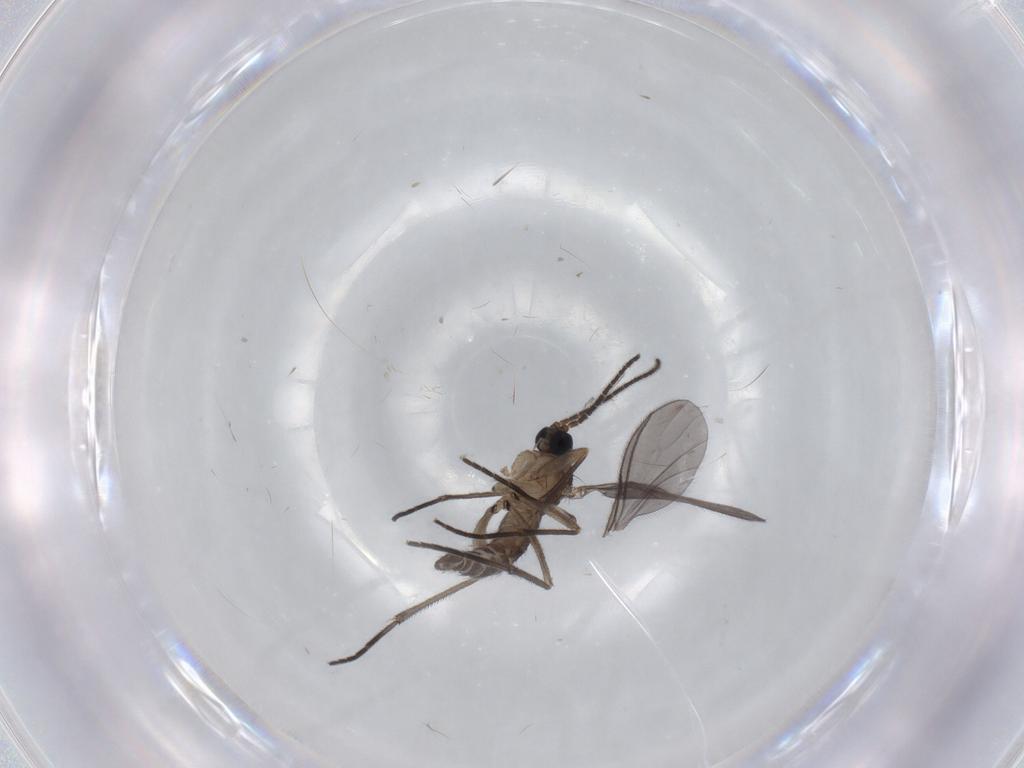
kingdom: Animalia
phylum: Arthropoda
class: Insecta
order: Diptera
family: Sciaridae
